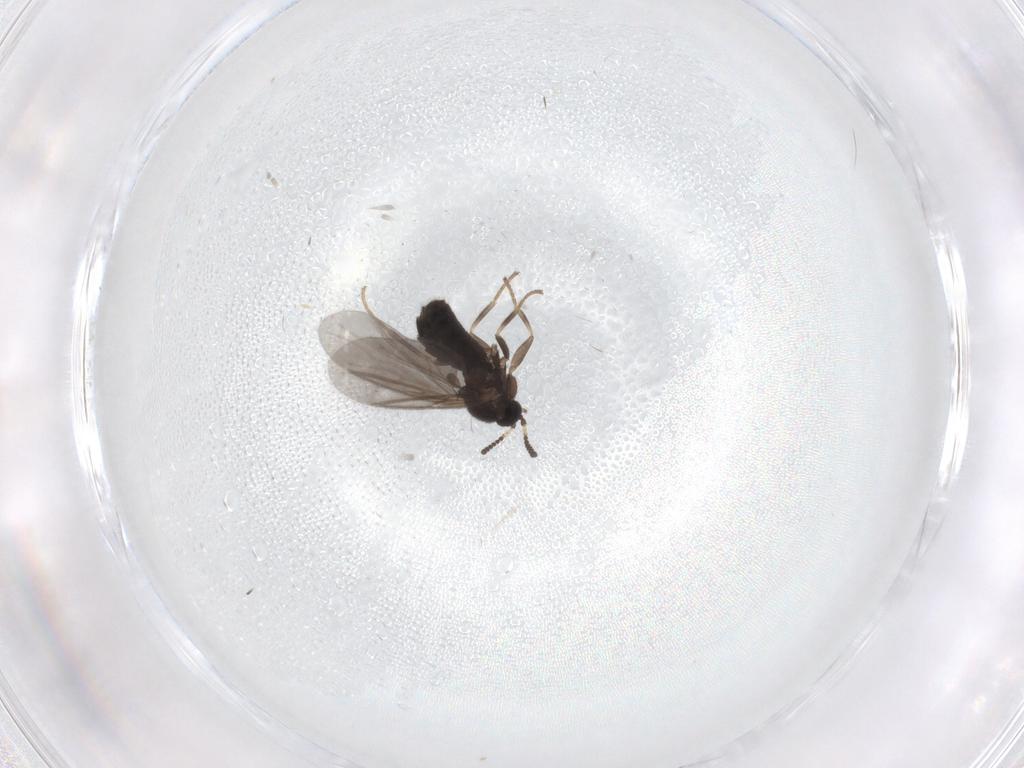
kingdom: Animalia
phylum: Arthropoda
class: Insecta
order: Diptera
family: Scatopsidae
